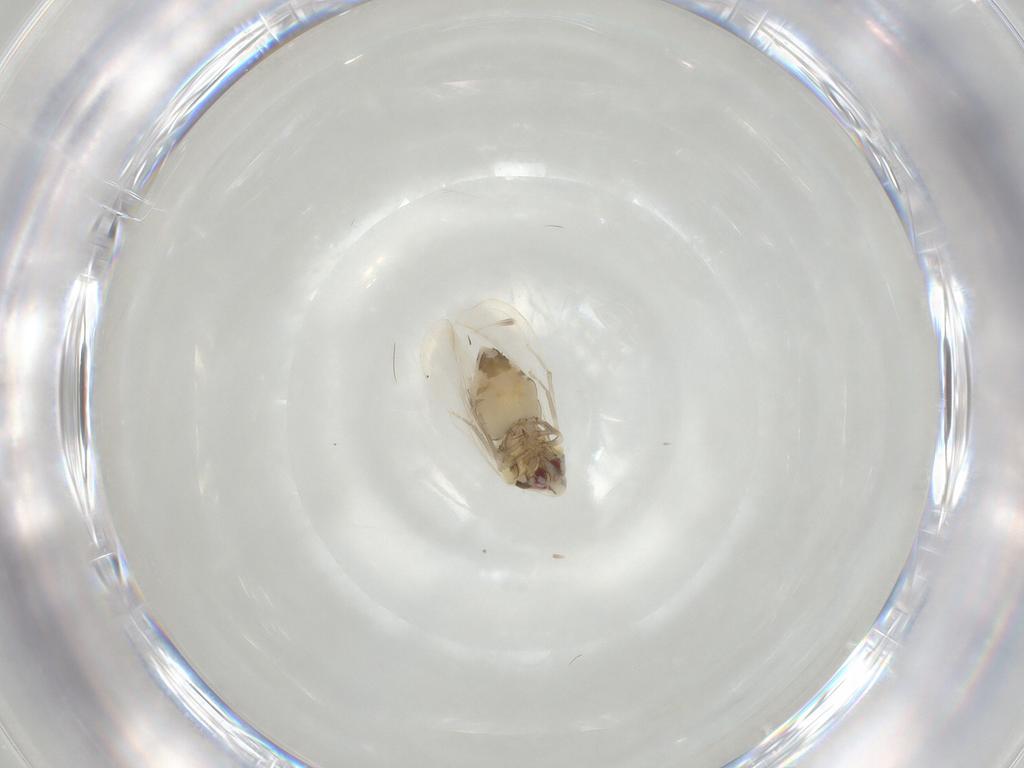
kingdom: Animalia
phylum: Arthropoda
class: Insecta
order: Hemiptera
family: Aleyrodidae
